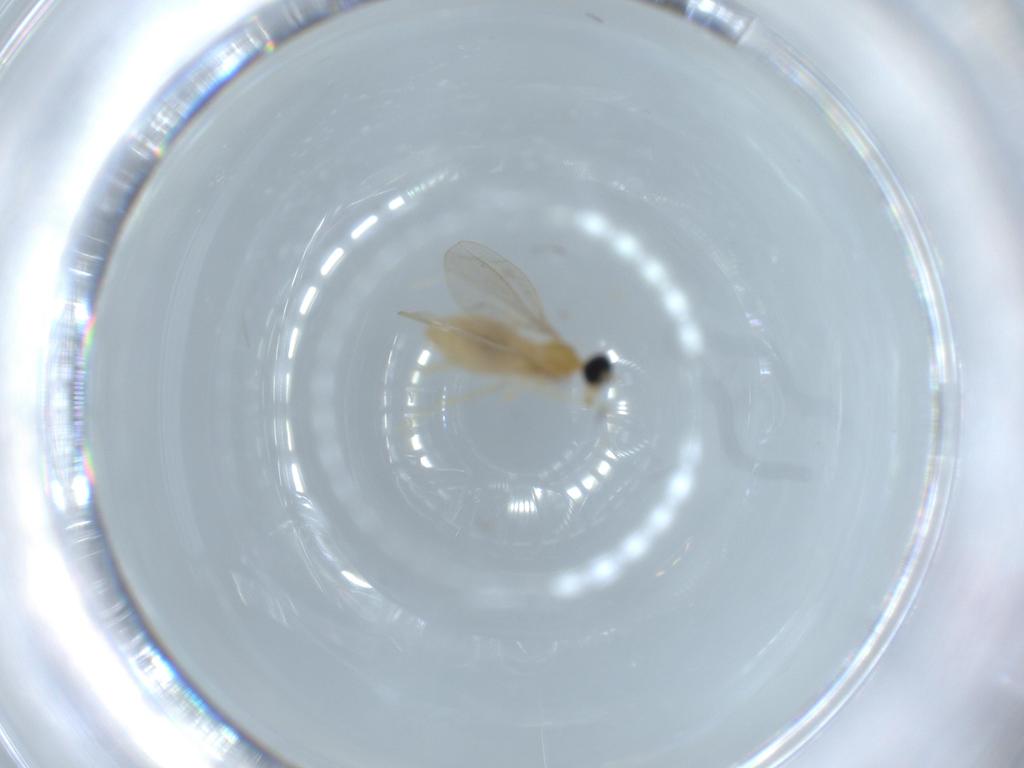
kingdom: Animalia
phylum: Arthropoda
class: Insecta
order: Diptera
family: Cecidomyiidae
